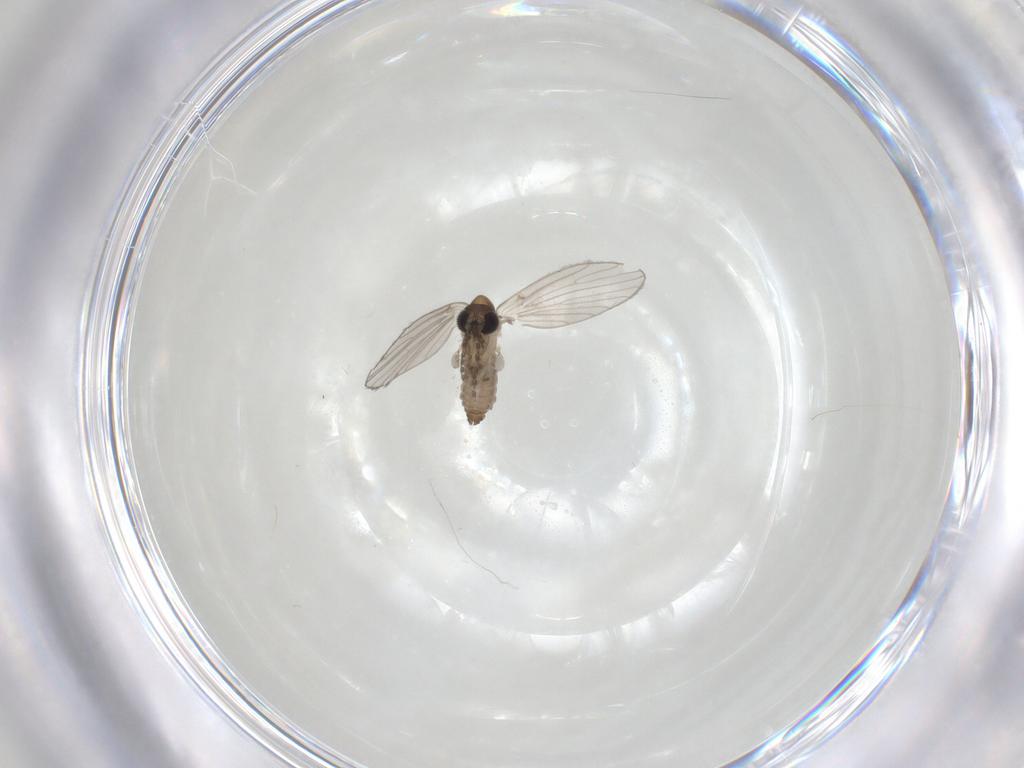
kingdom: Animalia
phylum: Arthropoda
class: Insecta
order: Diptera
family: Psychodidae
